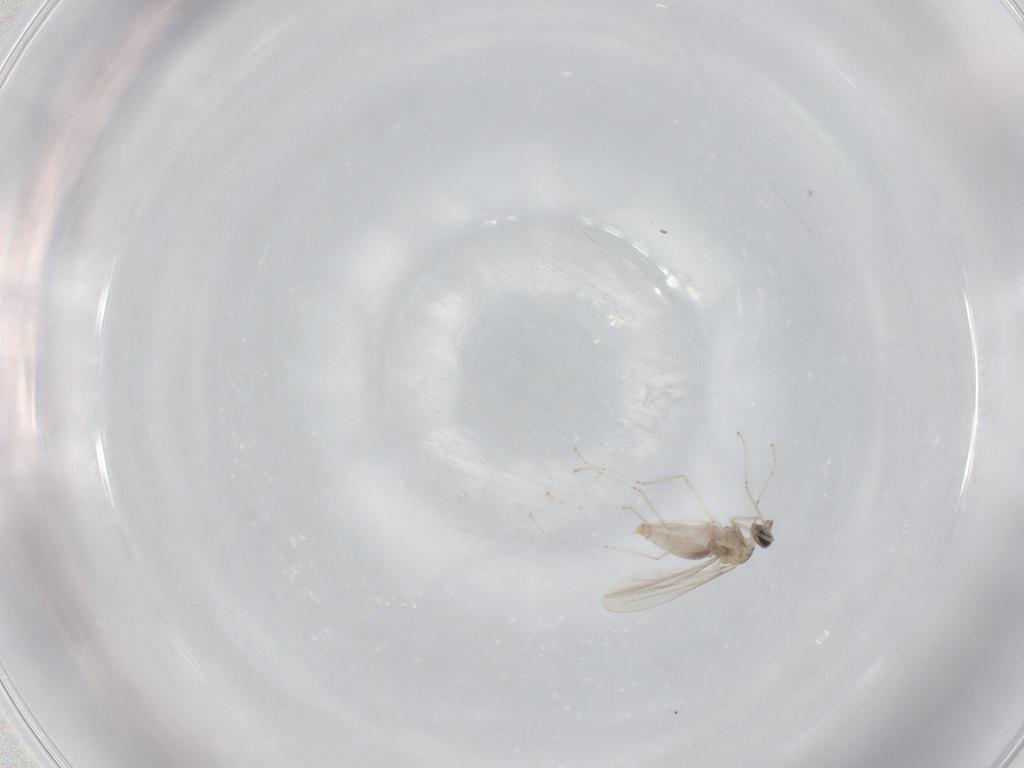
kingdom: Animalia
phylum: Arthropoda
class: Insecta
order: Diptera
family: Cecidomyiidae
